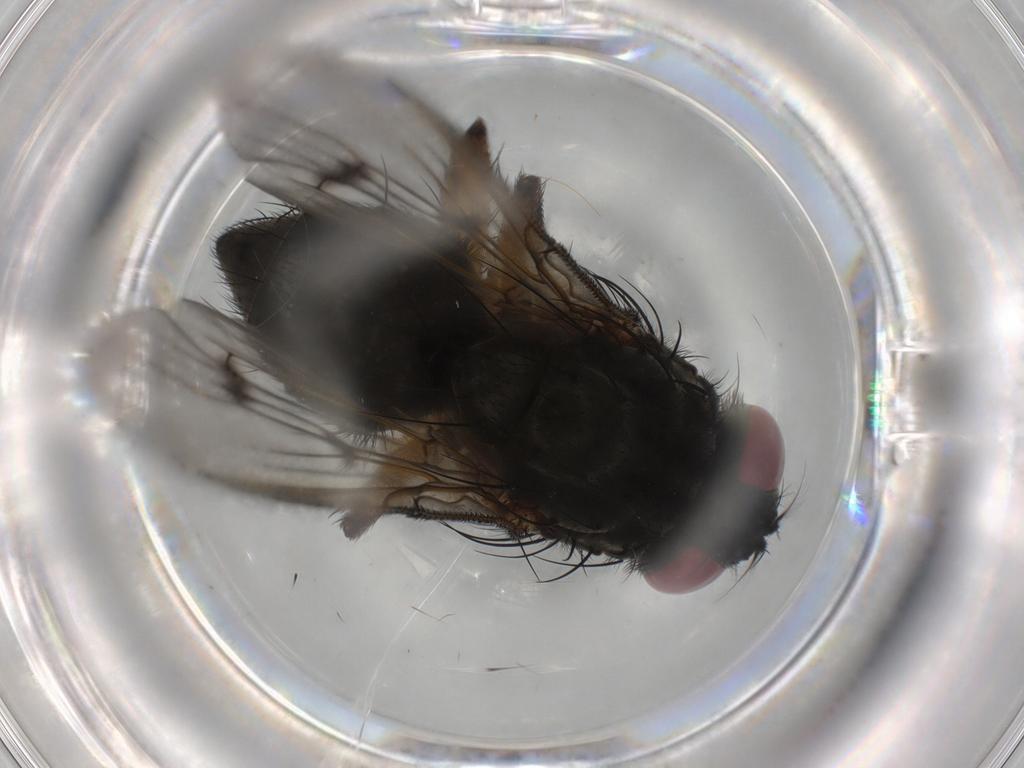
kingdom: Animalia
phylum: Arthropoda
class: Insecta
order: Diptera
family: Muscidae
